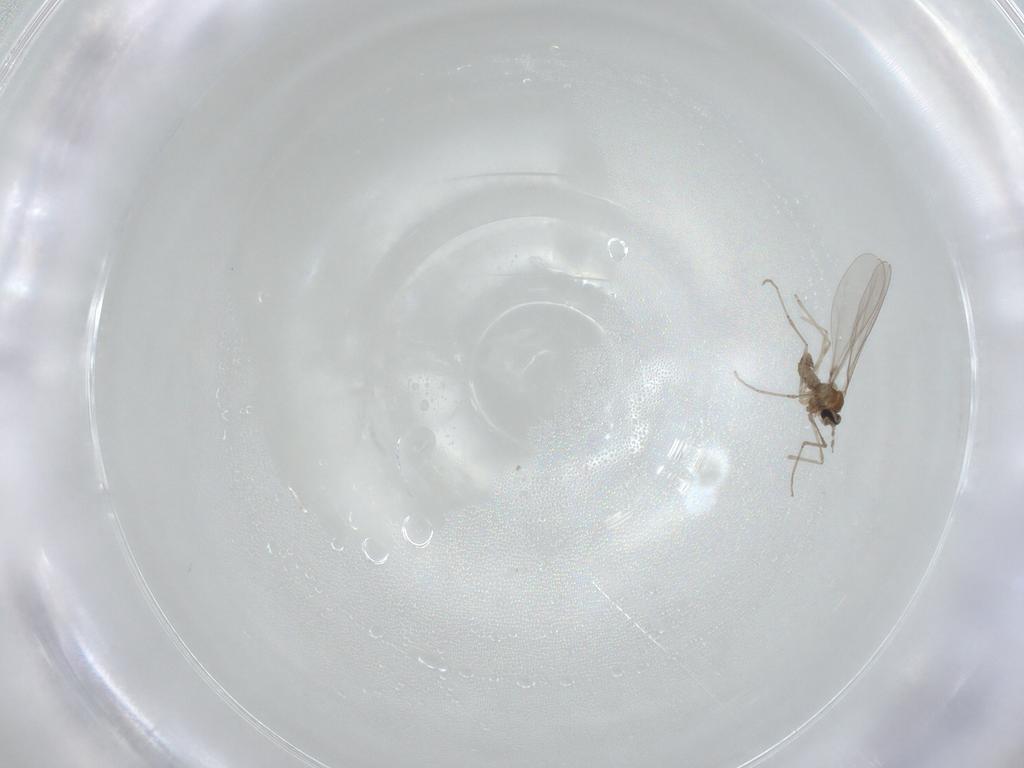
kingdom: Animalia
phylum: Arthropoda
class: Insecta
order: Diptera
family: Cecidomyiidae
